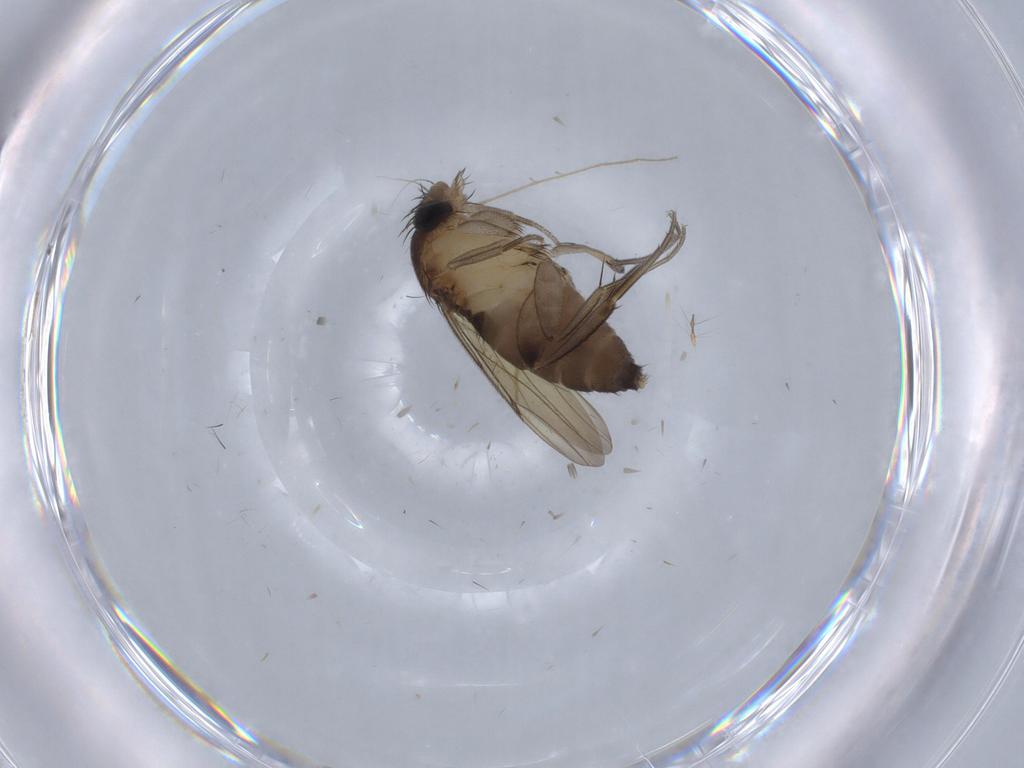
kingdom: Animalia
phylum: Arthropoda
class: Insecta
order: Diptera
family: Phoridae
